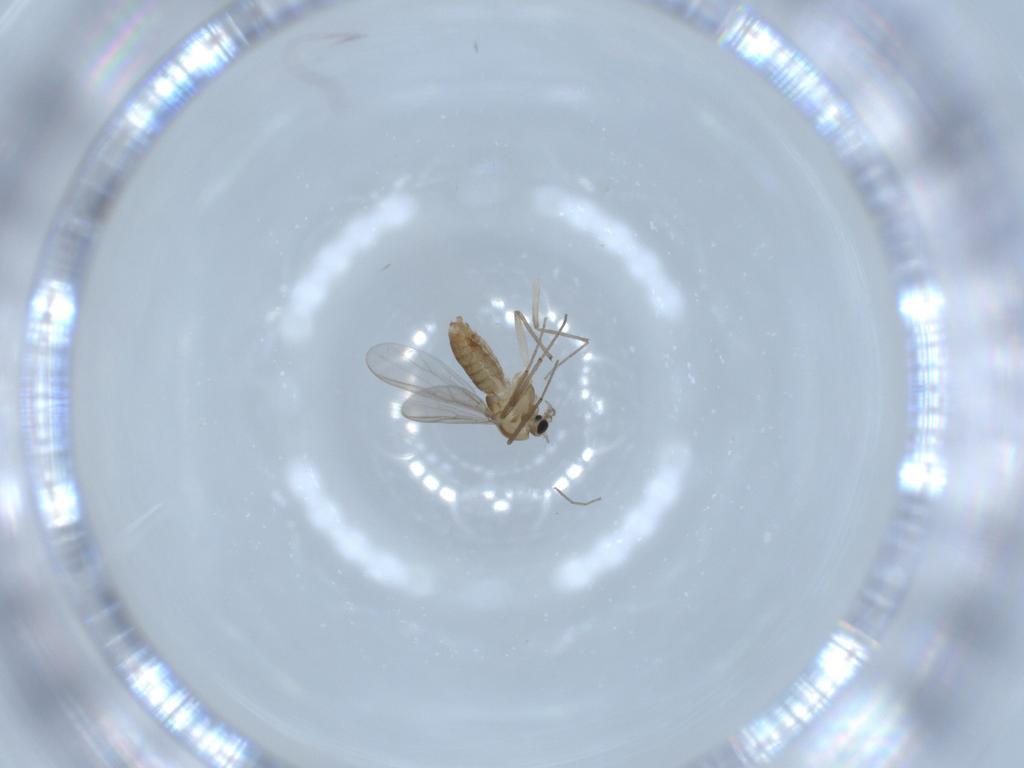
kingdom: Animalia
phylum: Arthropoda
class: Insecta
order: Diptera
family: Chironomidae
